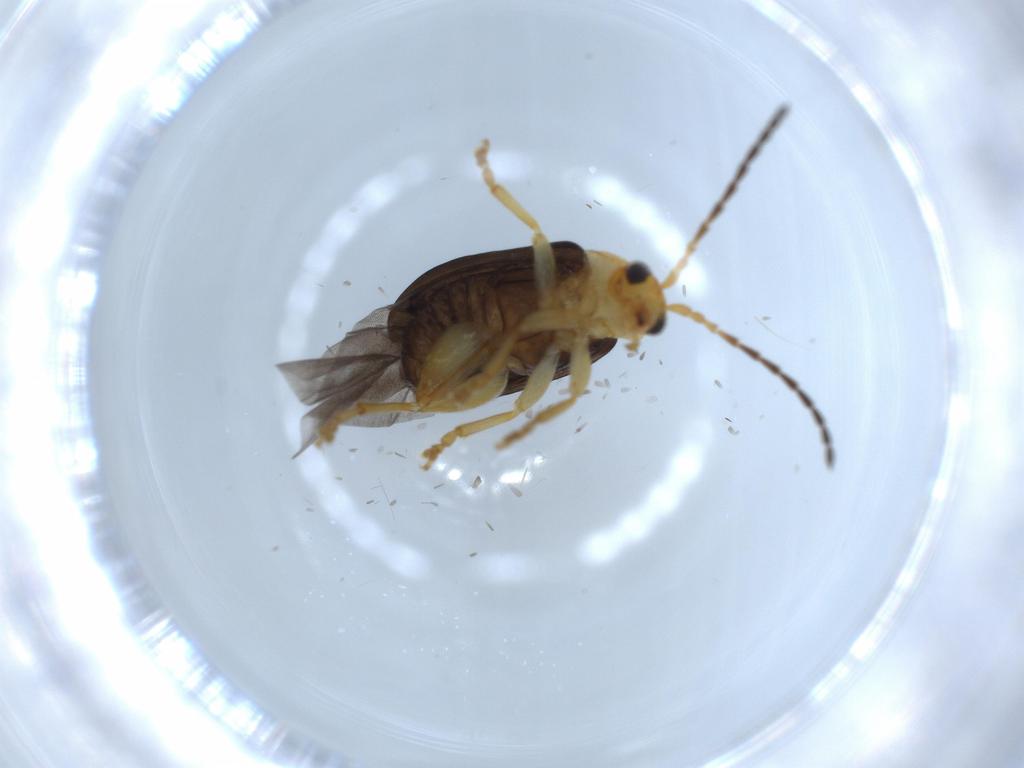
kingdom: Animalia
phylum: Arthropoda
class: Insecta
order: Coleoptera
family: Chrysomelidae
